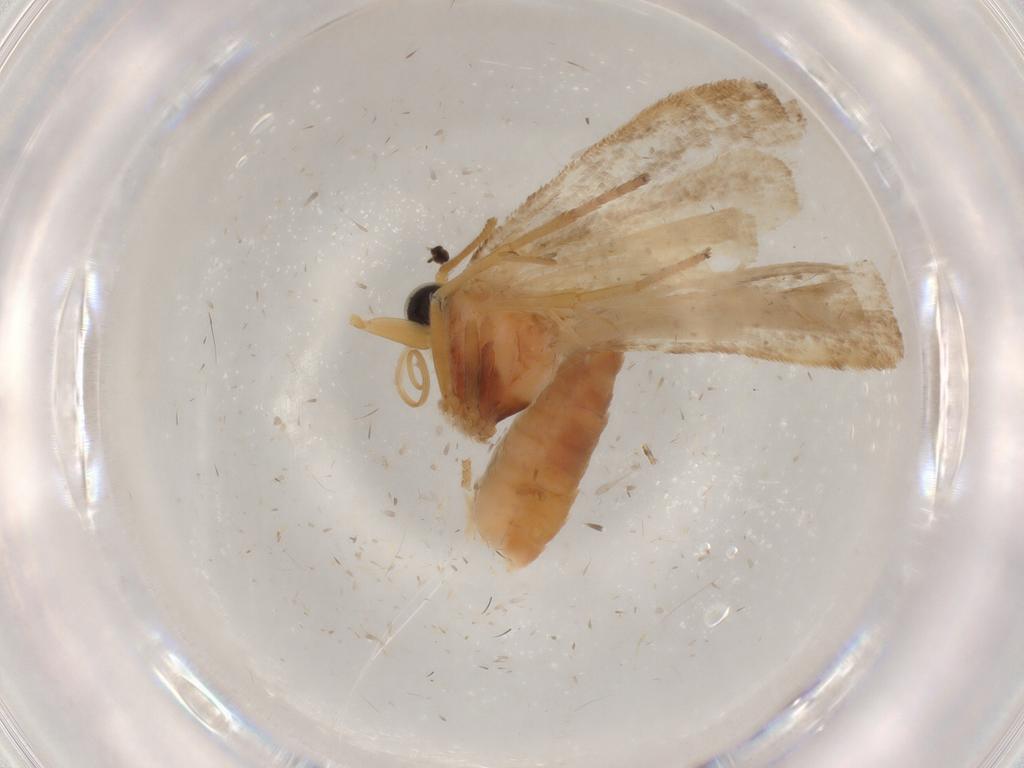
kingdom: Animalia
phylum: Arthropoda
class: Insecta
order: Lepidoptera
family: Pyralidae
